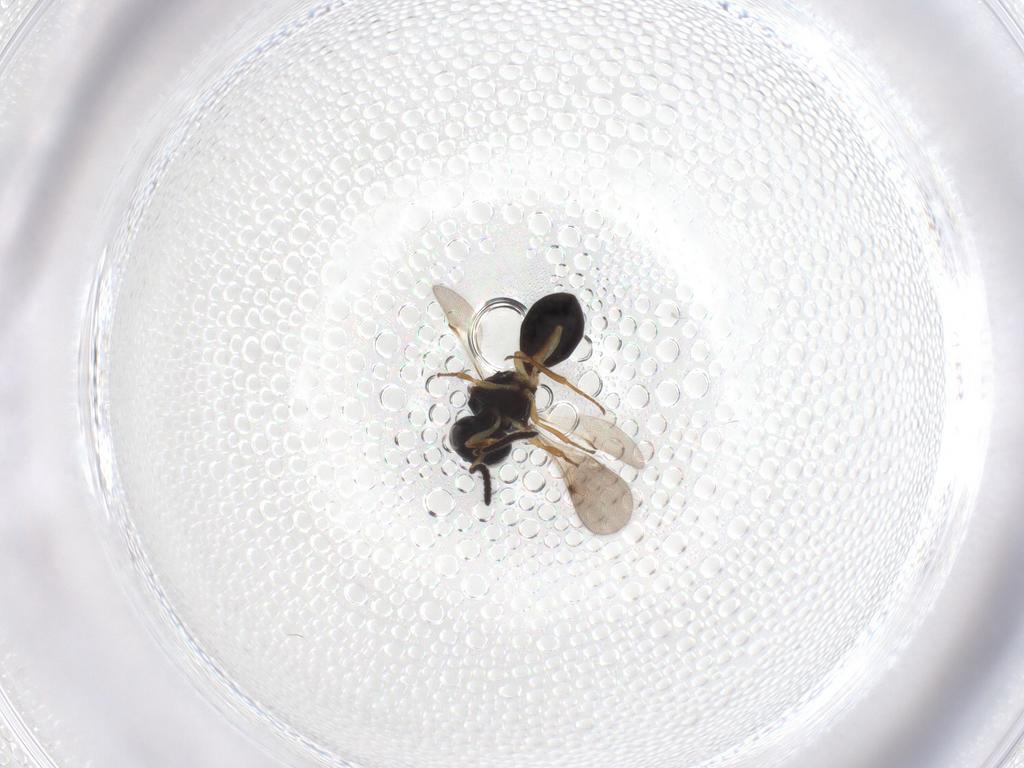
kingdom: Animalia
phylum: Arthropoda
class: Insecta
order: Hymenoptera
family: Scelionidae
